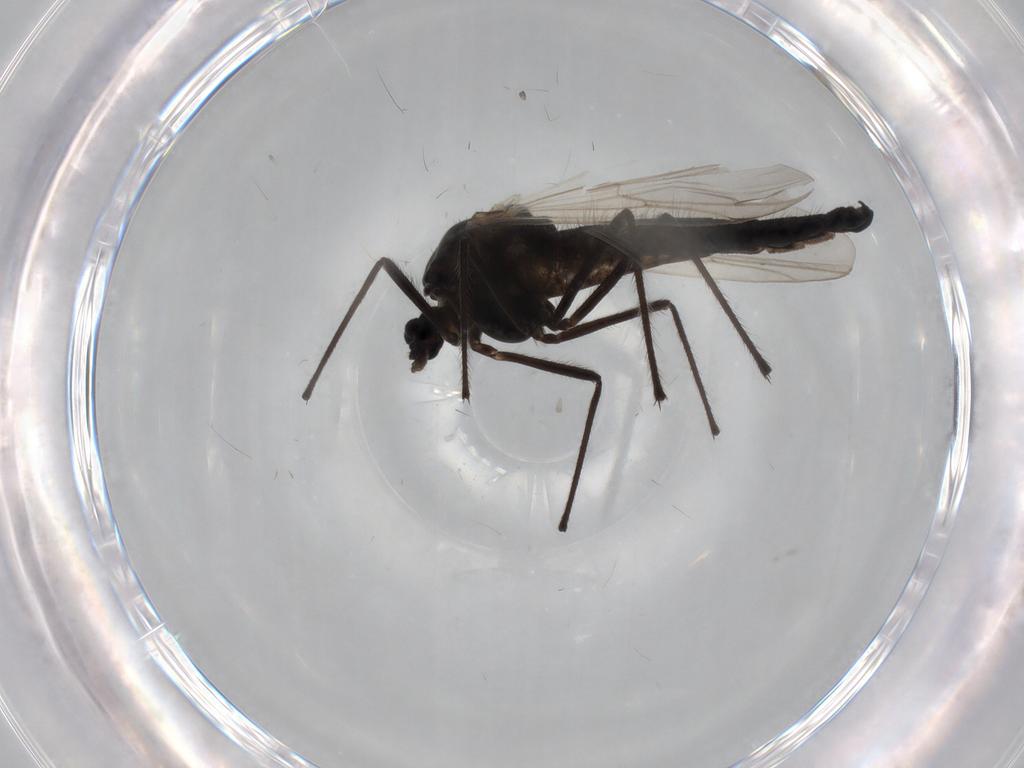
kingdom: Animalia
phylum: Arthropoda
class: Insecta
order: Diptera
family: Chironomidae
